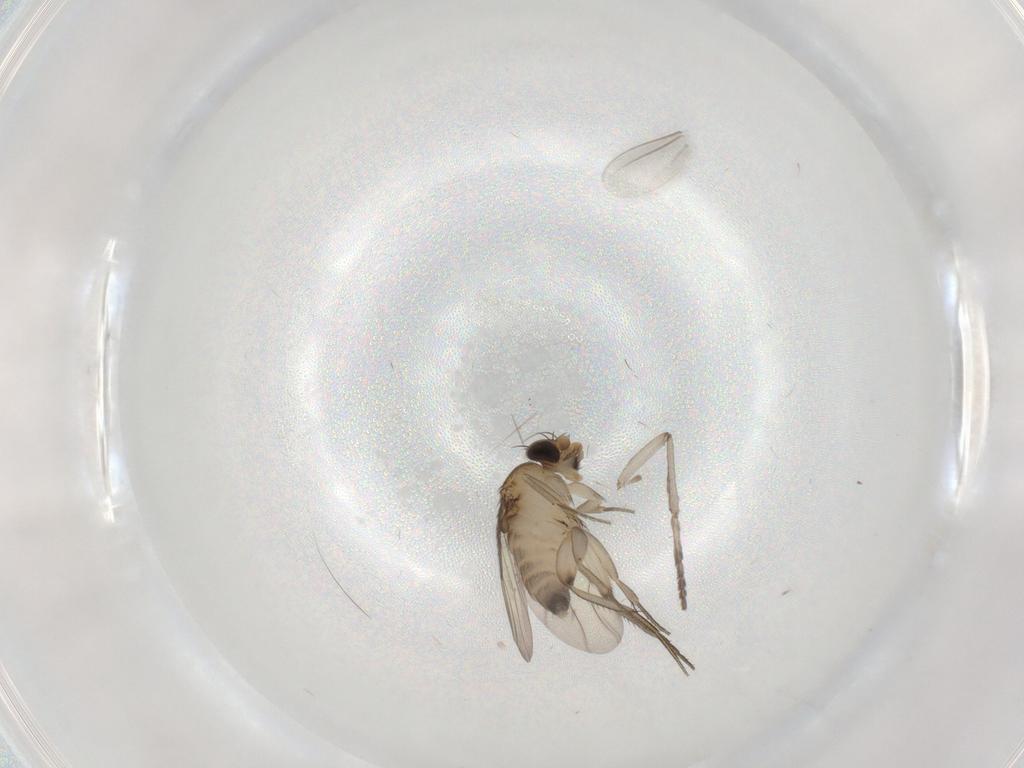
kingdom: Animalia
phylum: Arthropoda
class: Insecta
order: Diptera
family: Phoridae
